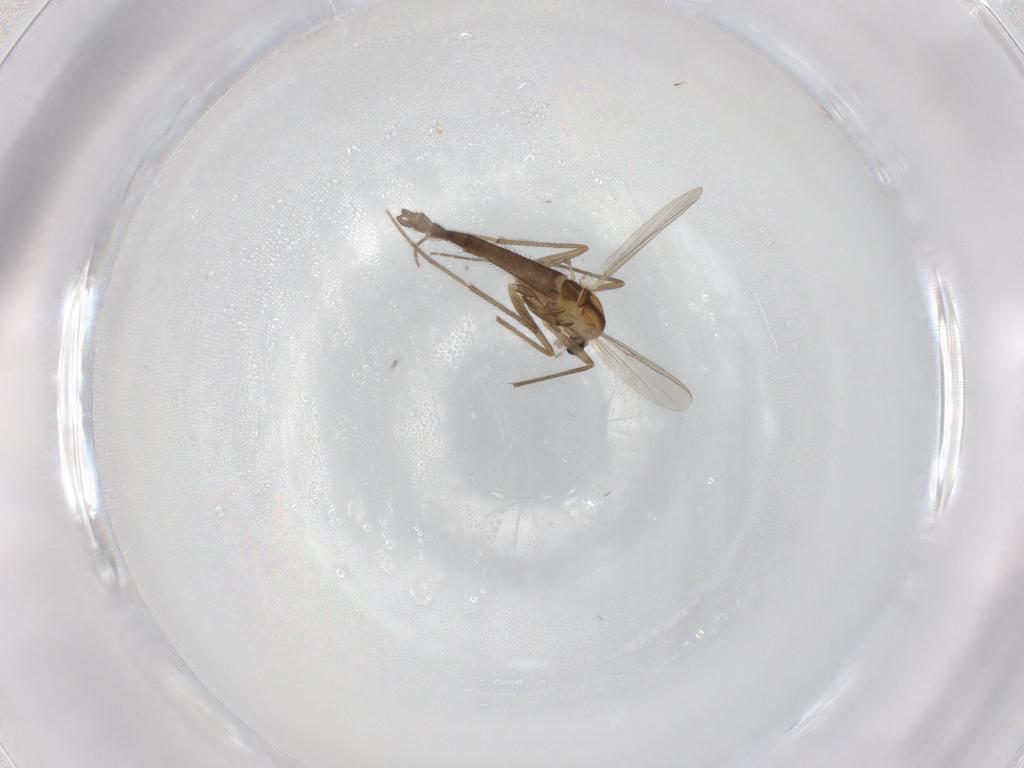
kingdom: Animalia
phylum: Arthropoda
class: Insecta
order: Diptera
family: Chironomidae
